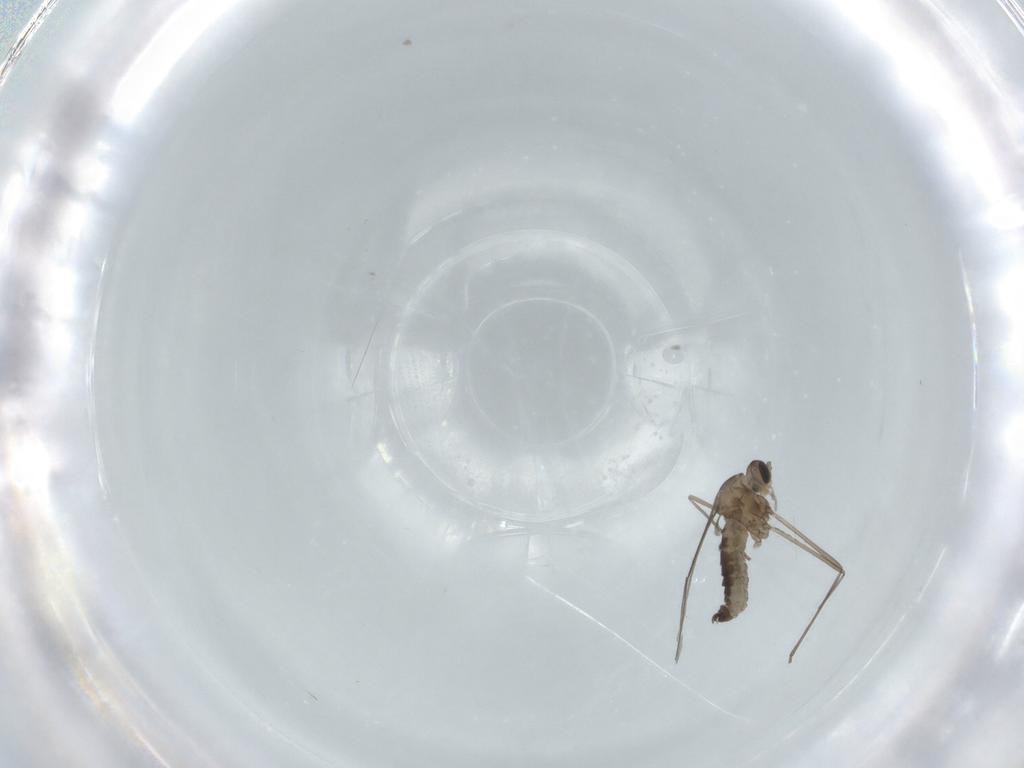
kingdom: Animalia
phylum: Arthropoda
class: Insecta
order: Diptera
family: Cecidomyiidae
